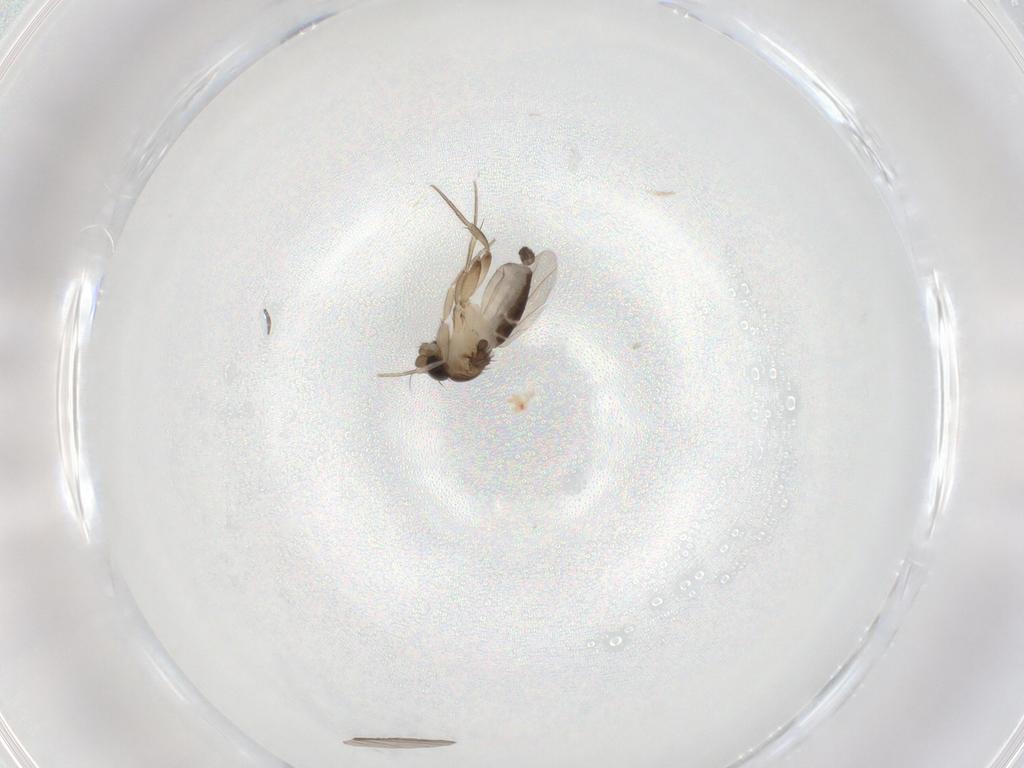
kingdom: Animalia
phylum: Arthropoda
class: Insecta
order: Diptera
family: Phoridae
